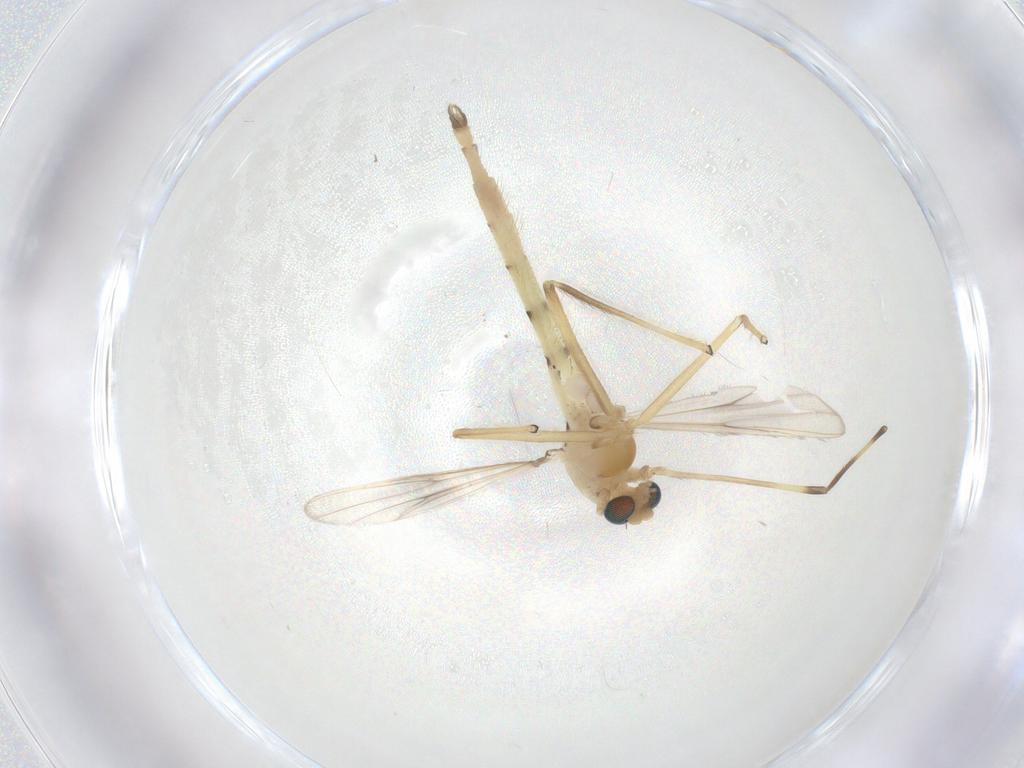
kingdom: Animalia
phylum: Arthropoda
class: Insecta
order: Diptera
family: Chironomidae
